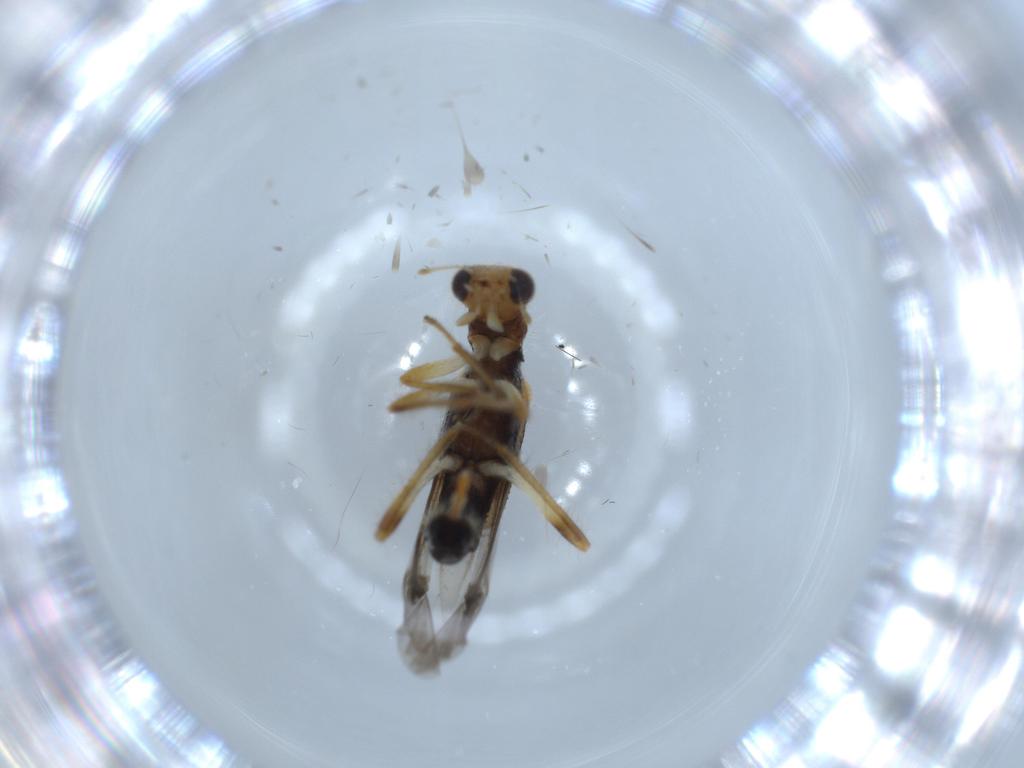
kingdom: Animalia
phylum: Arthropoda
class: Insecta
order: Coleoptera
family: Cleridae
